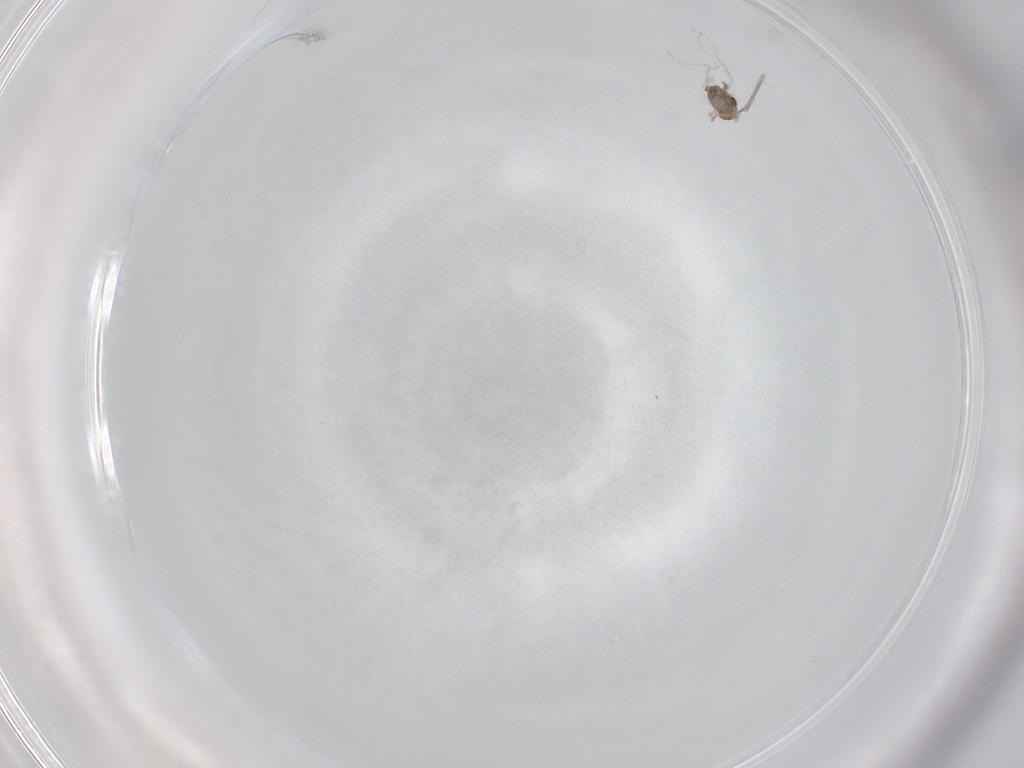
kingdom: Animalia
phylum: Arthropoda
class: Insecta
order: Diptera
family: Cecidomyiidae
